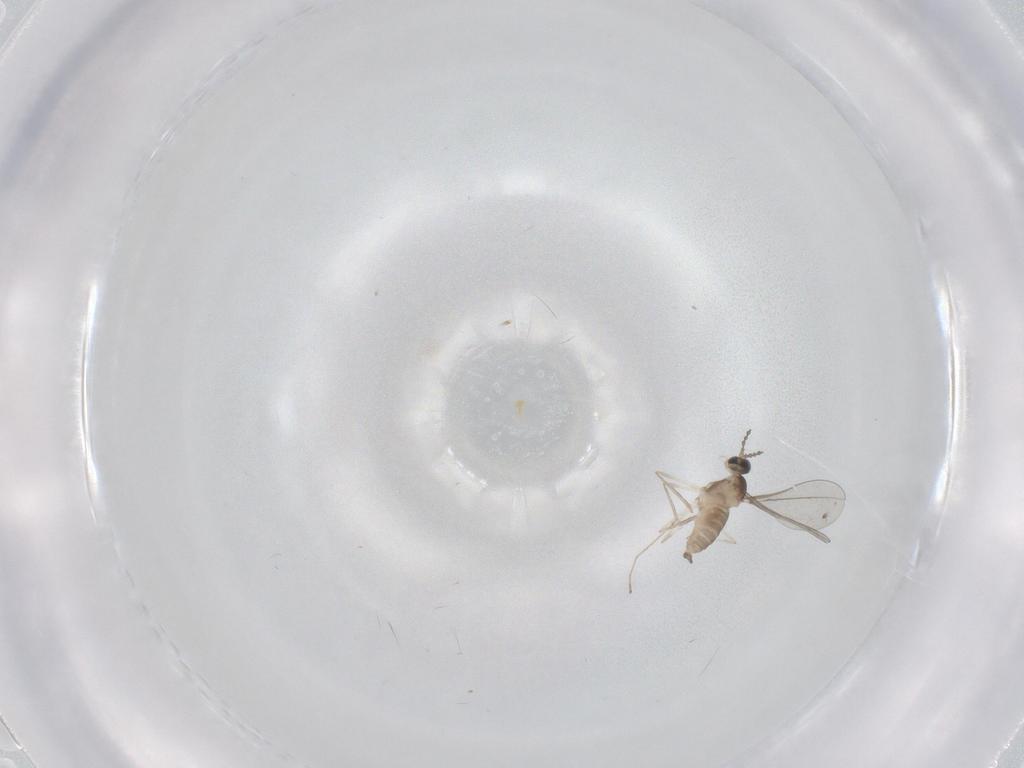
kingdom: Animalia
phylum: Arthropoda
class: Insecta
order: Diptera
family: Cecidomyiidae
